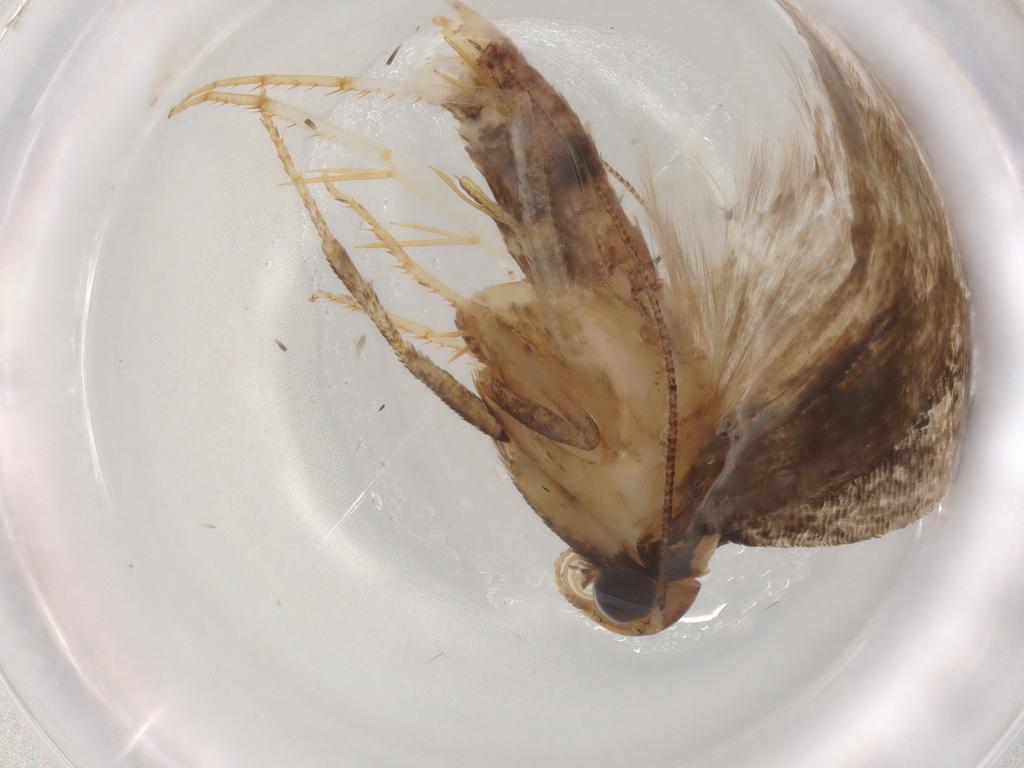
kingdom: Animalia
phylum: Arthropoda
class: Insecta
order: Lepidoptera
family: Gelechiidae
